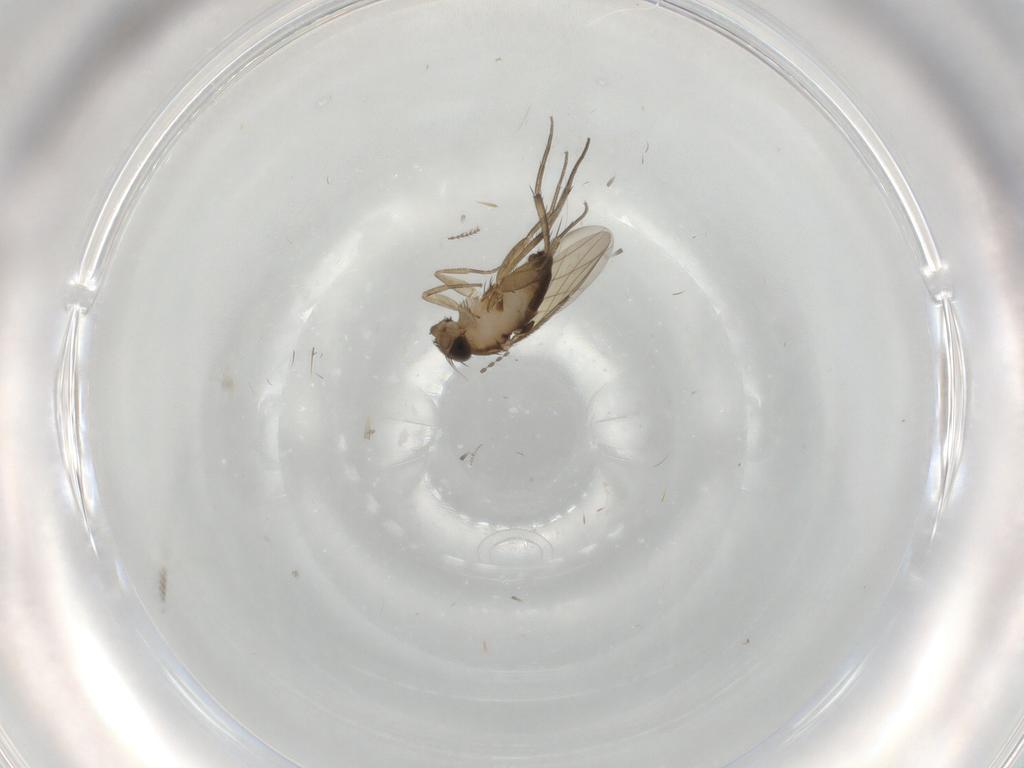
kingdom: Animalia
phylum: Arthropoda
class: Insecta
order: Diptera
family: Phoridae
